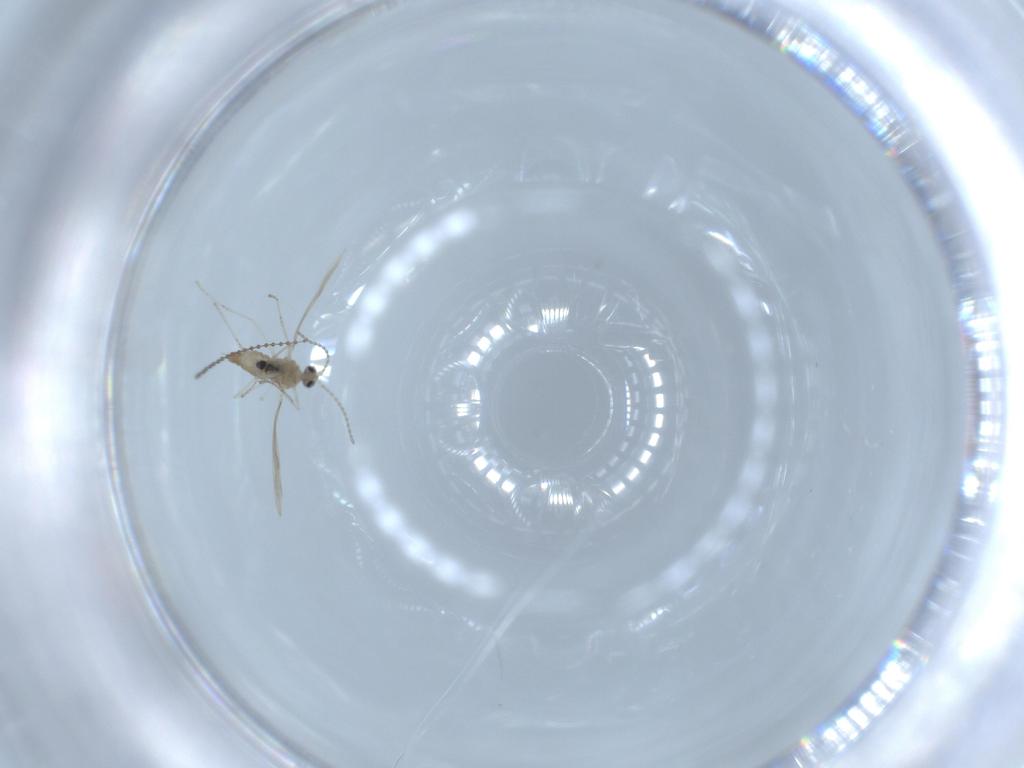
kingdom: Animalia
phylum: Arthropoda
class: Insecta
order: Diptera
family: Cecidomyiidae
